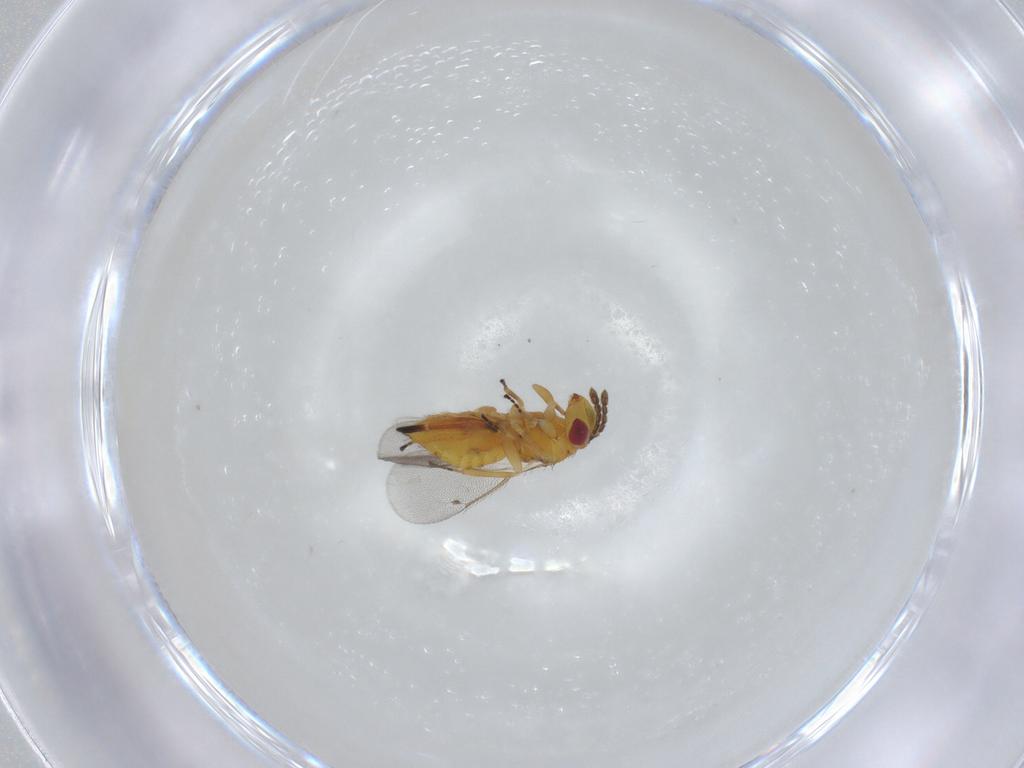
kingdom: Animalia
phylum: Arthropoda
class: Insecta
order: Hymenoptera
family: Eulophidae
